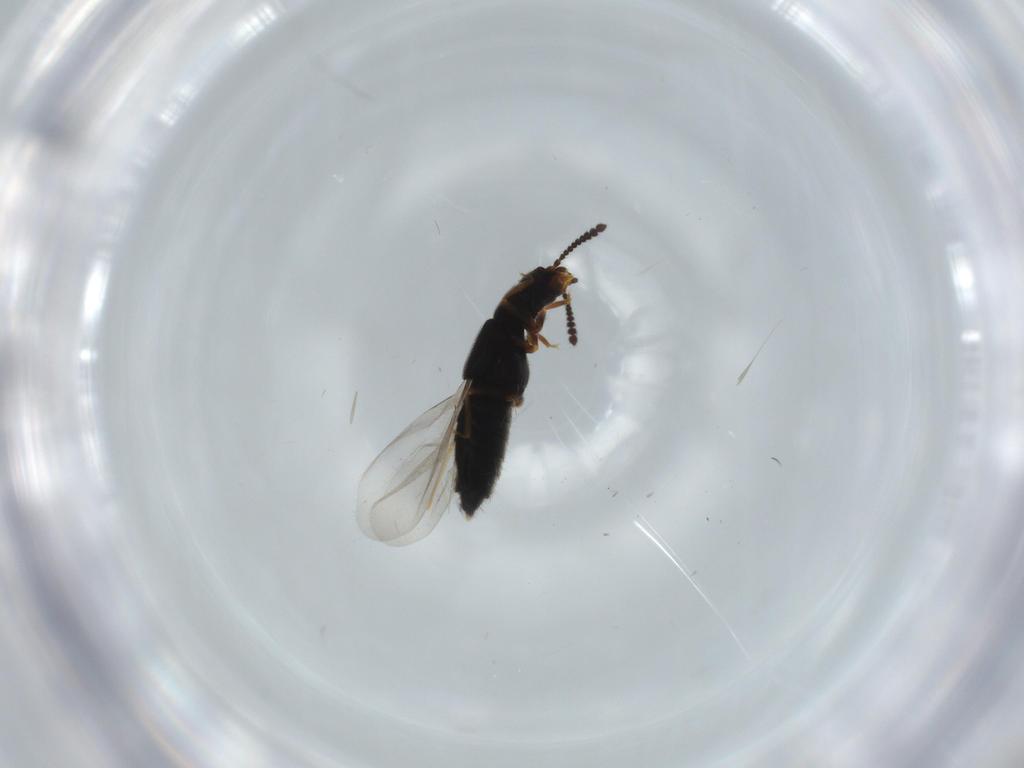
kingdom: Animalia
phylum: Arthropoda
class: Insecta
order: Coleoptera
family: Staphylinidae
